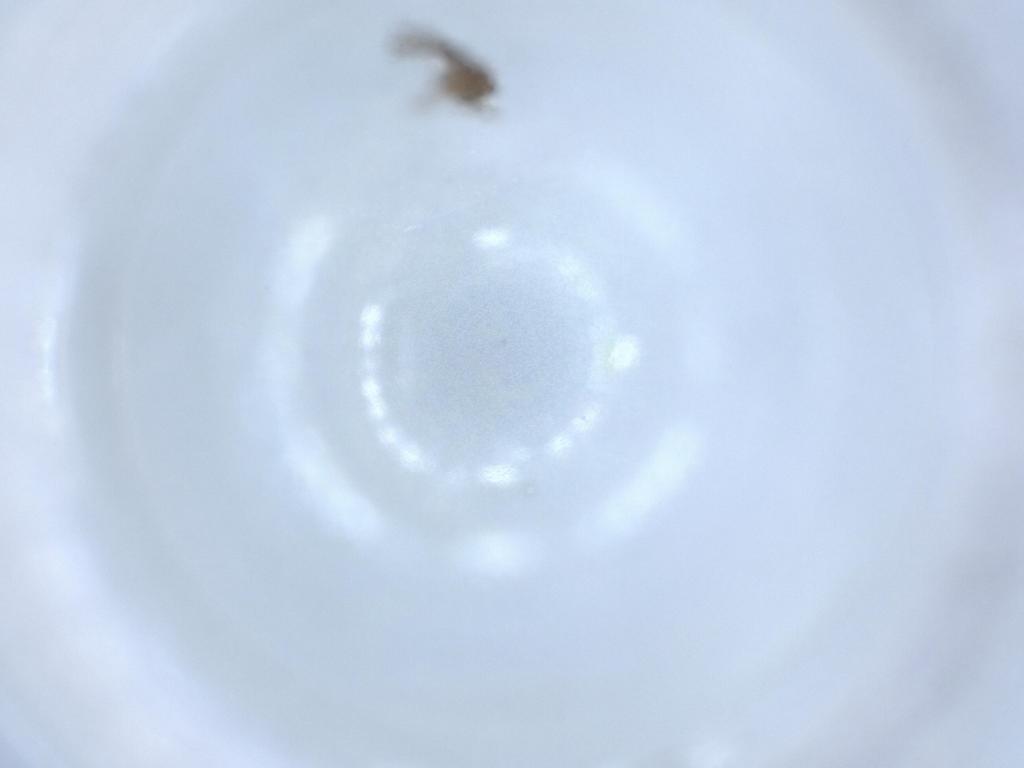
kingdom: Animalia
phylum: Arthropoda
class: Insecta
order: Diptera
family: Chironomidae
